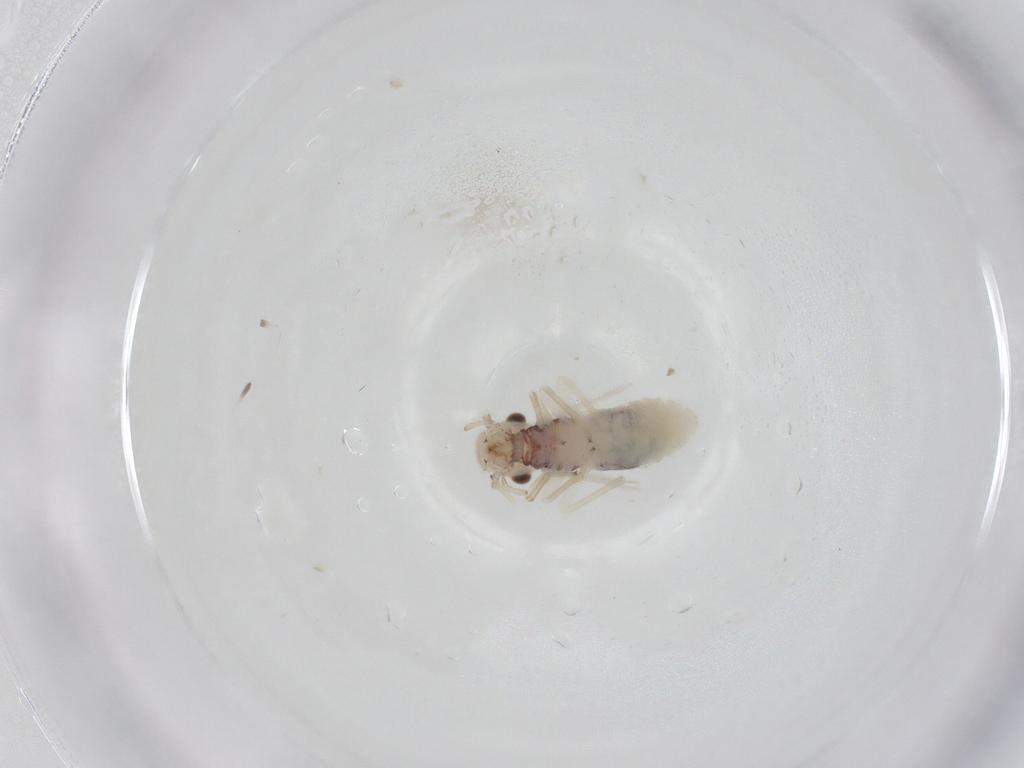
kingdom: Animalia
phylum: Arthropoda
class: Insecta
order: Psocodea
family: Caeciliusidae
